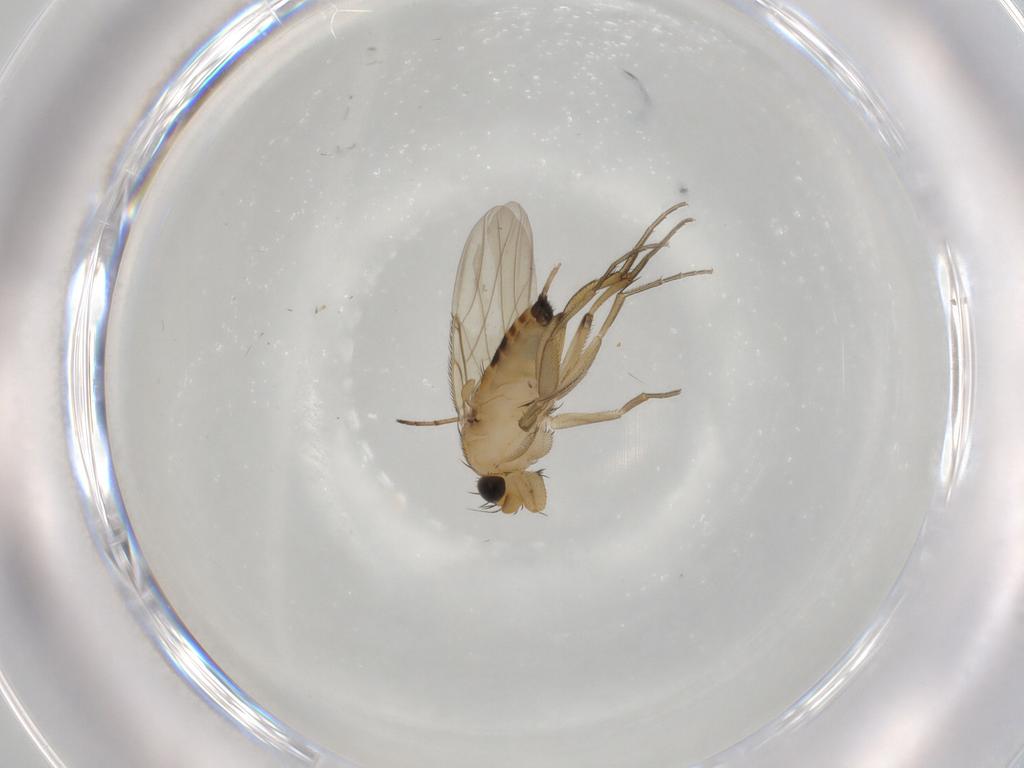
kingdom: Animalia
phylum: Arthropoda
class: Insecta
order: Diptera
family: Phoridae
